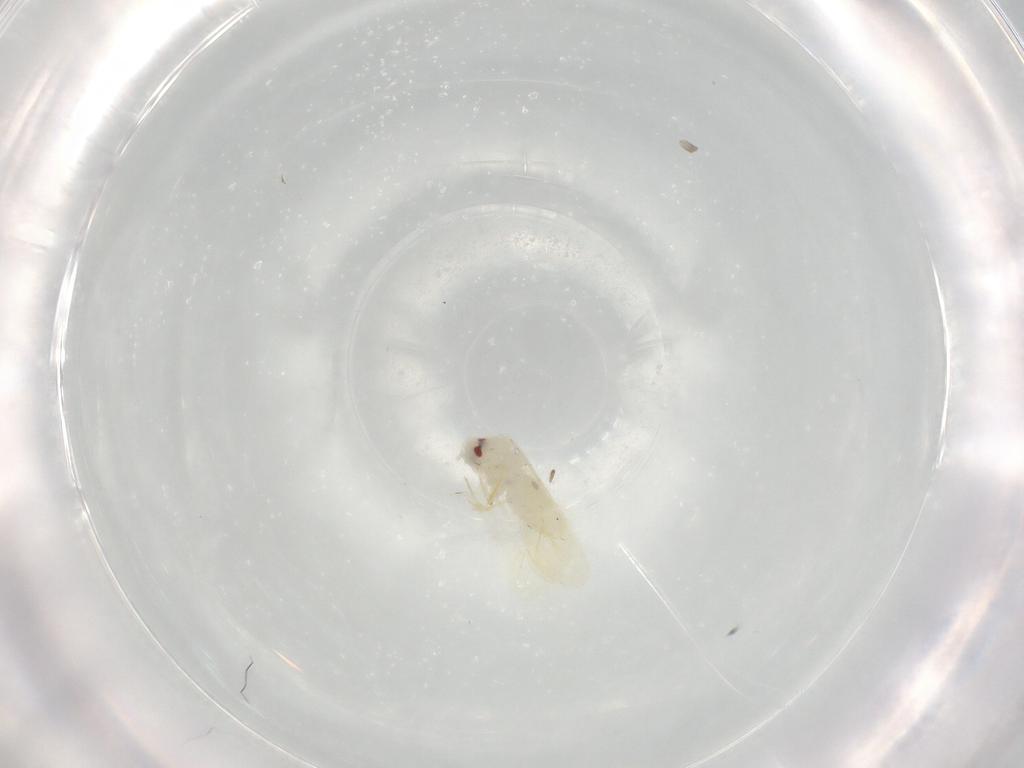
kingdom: Animalia
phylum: Arthropoda
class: Insecta
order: Hemiptera
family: Aleyrodidae
